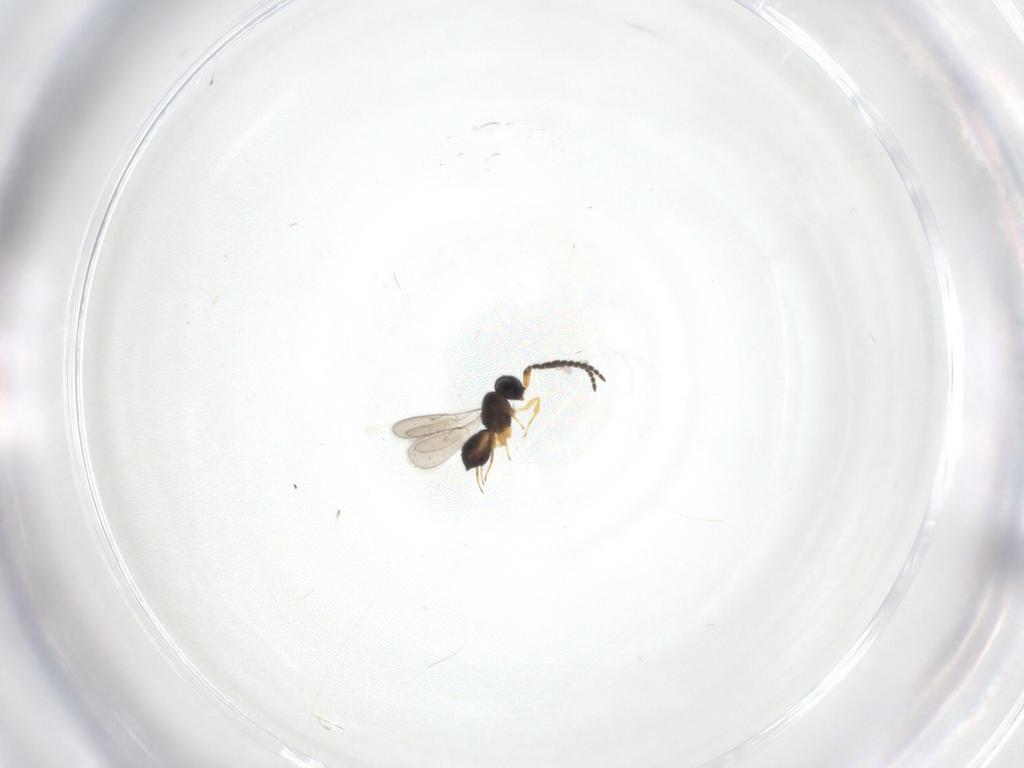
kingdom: Animalia
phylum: Arthropoda
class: Insecta
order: Hymenoptera
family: Scelionidae
